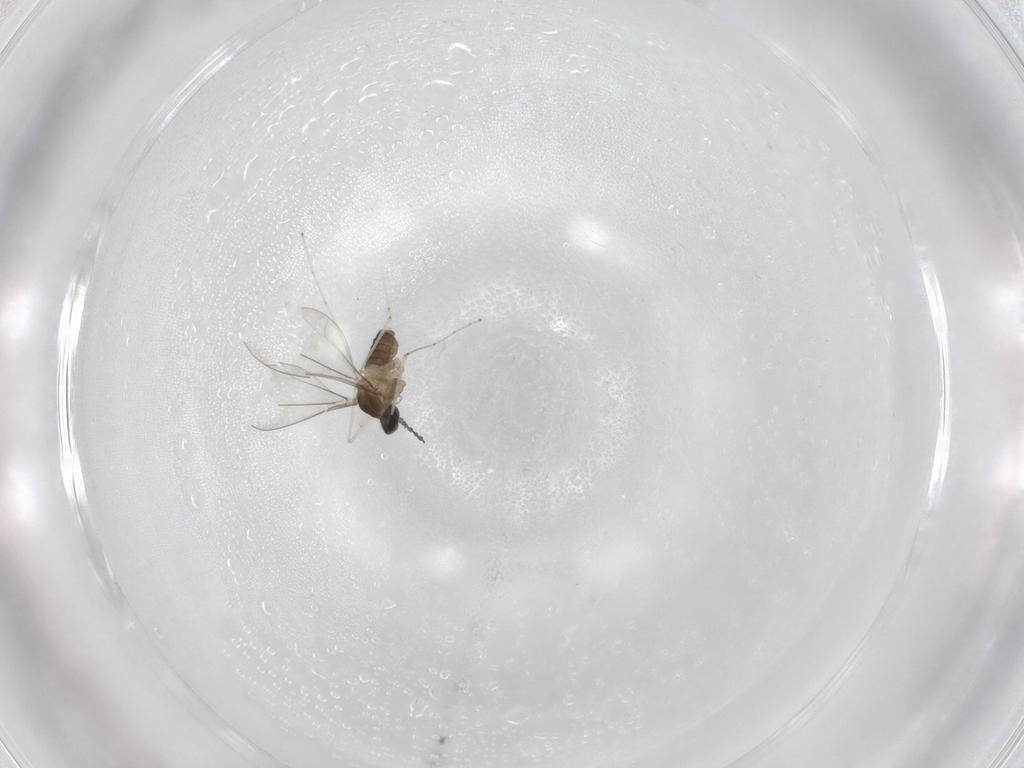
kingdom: Animalia
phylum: Arthropoda
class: Insecta
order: Diptera
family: Cecidomyiidae
